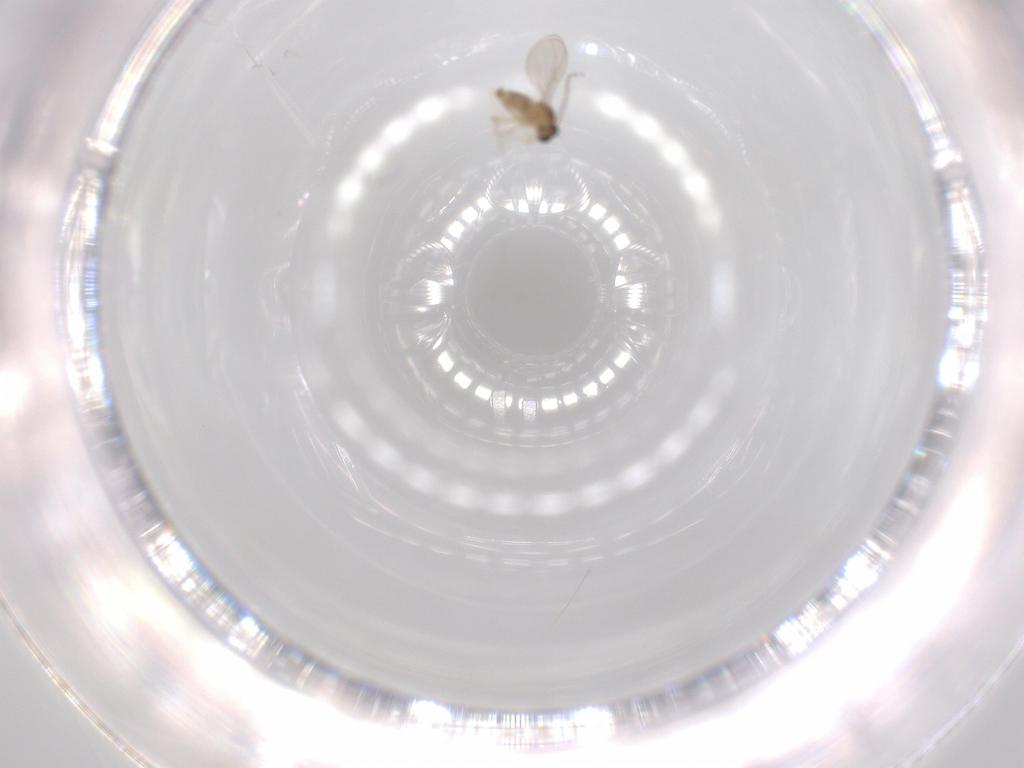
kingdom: Animalia
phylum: Arthropoda
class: Insecta
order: Diptera
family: Cecidomyiidae
